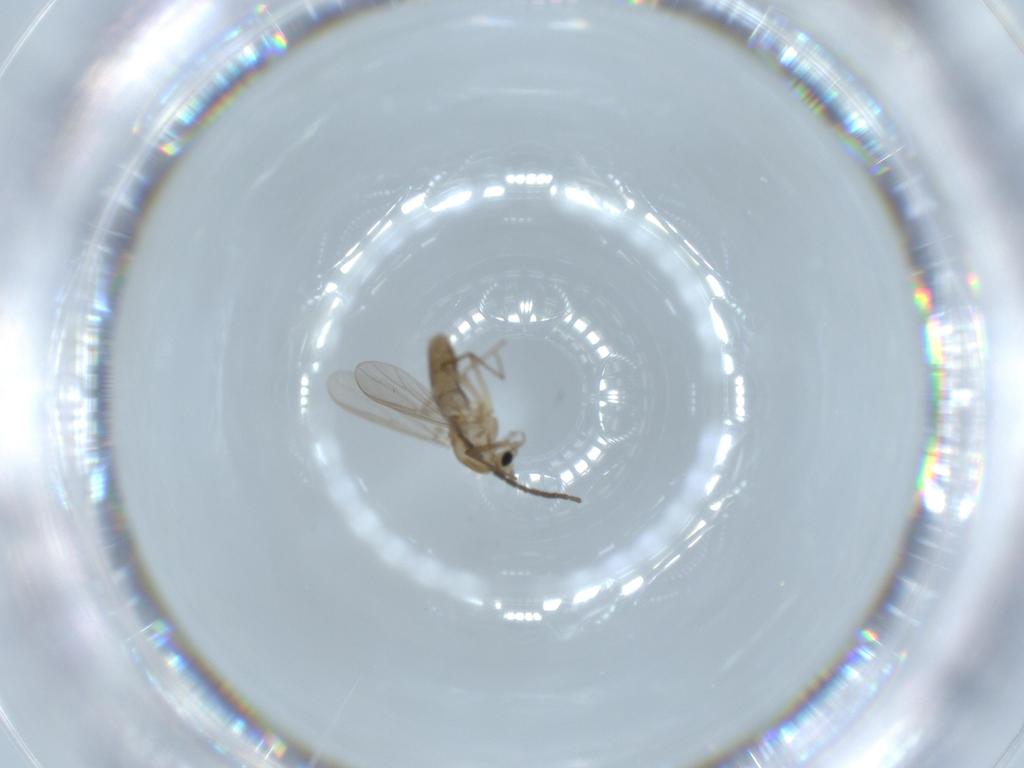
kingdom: Animalia
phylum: Arthropoda
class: Insecta
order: Diptera
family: Chironomidae
